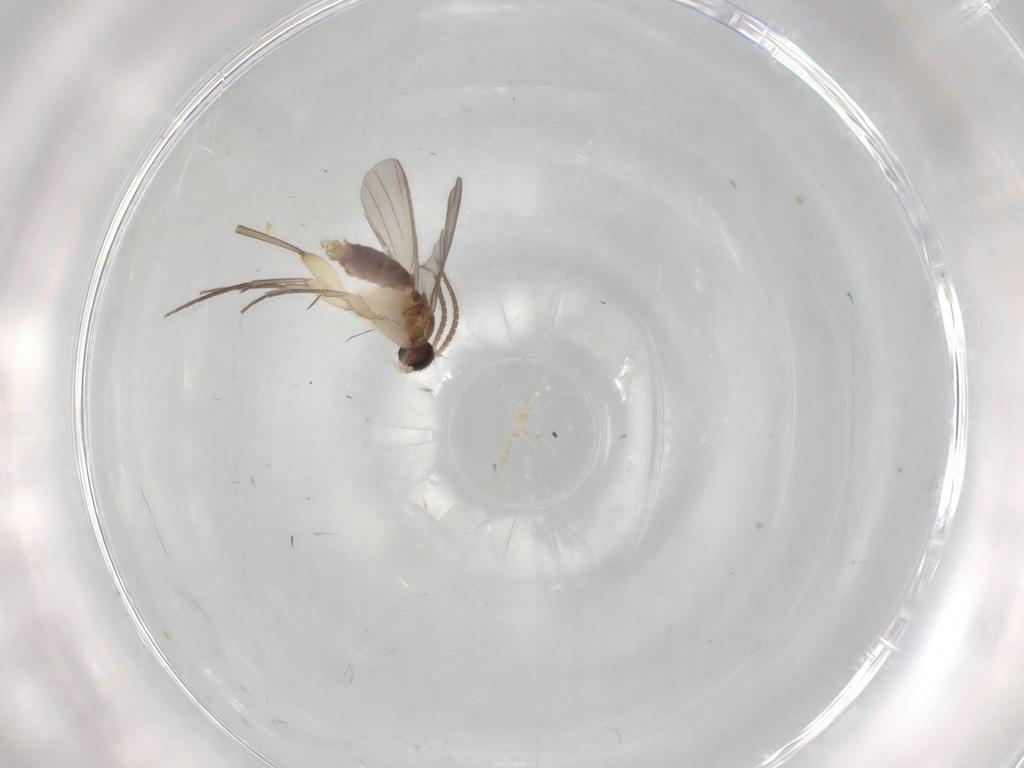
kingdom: Animalia
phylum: Arthropoda
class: Insecta
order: Diptera
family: Mycetophilidae
